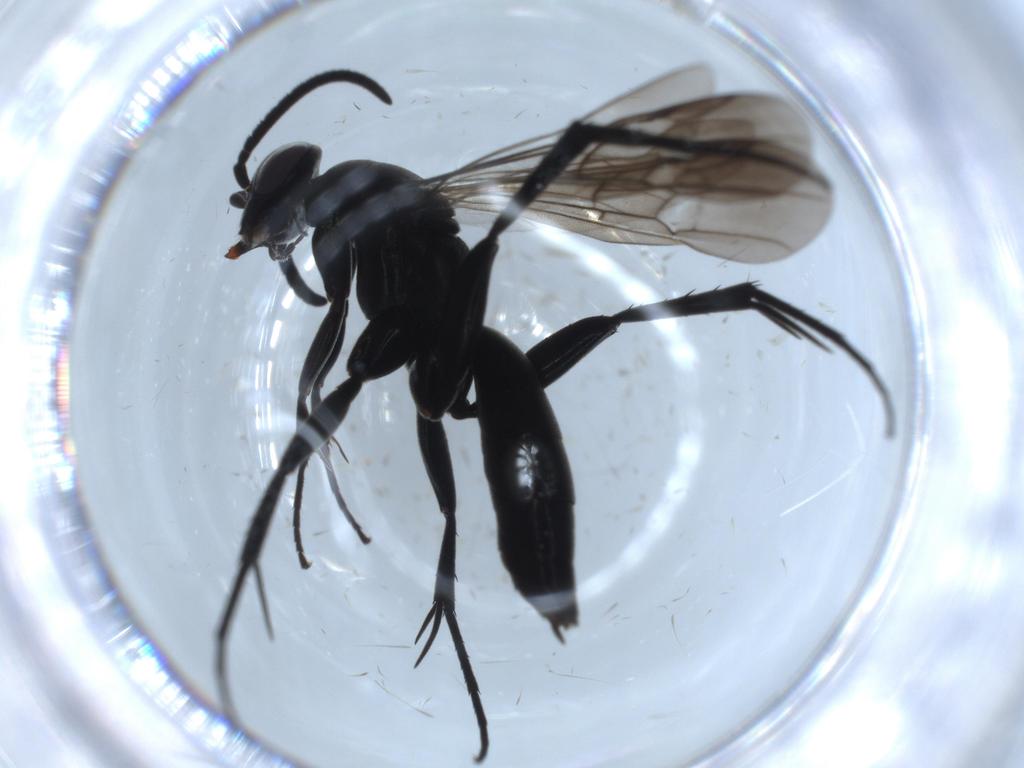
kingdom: Animalia
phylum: Arthropoda
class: Insecta
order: Hymenoptera
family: Pompilidae
